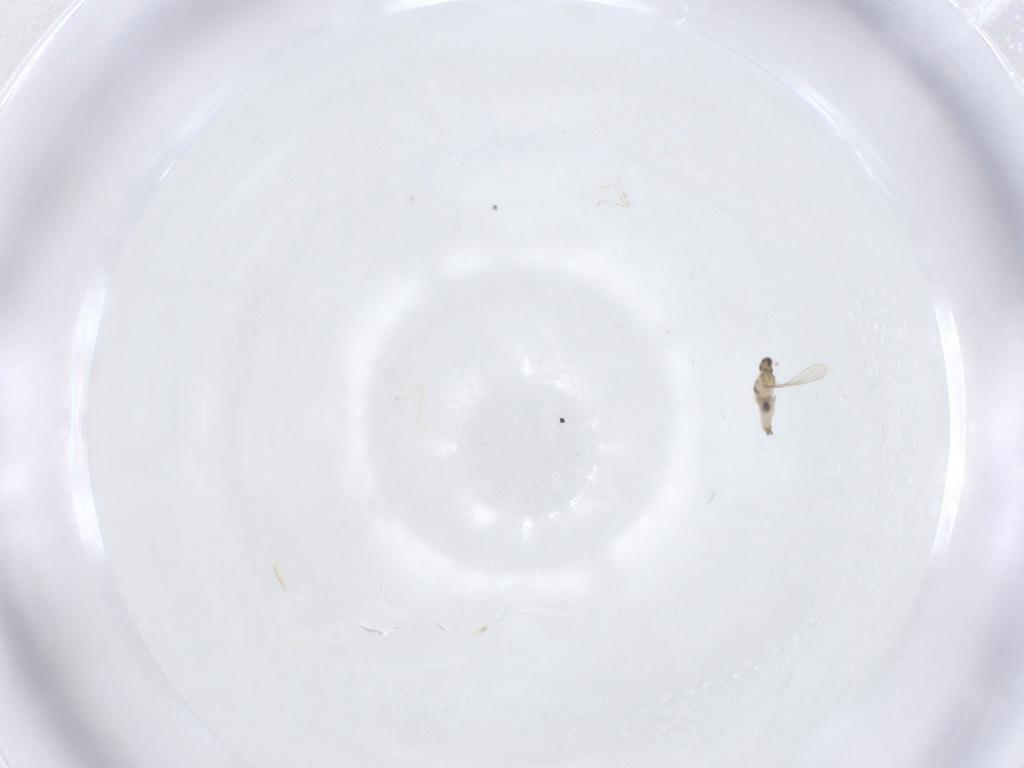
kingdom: Animalia
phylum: Arthropoda
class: Insecta
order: Diptera
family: Cecidomyiidae
